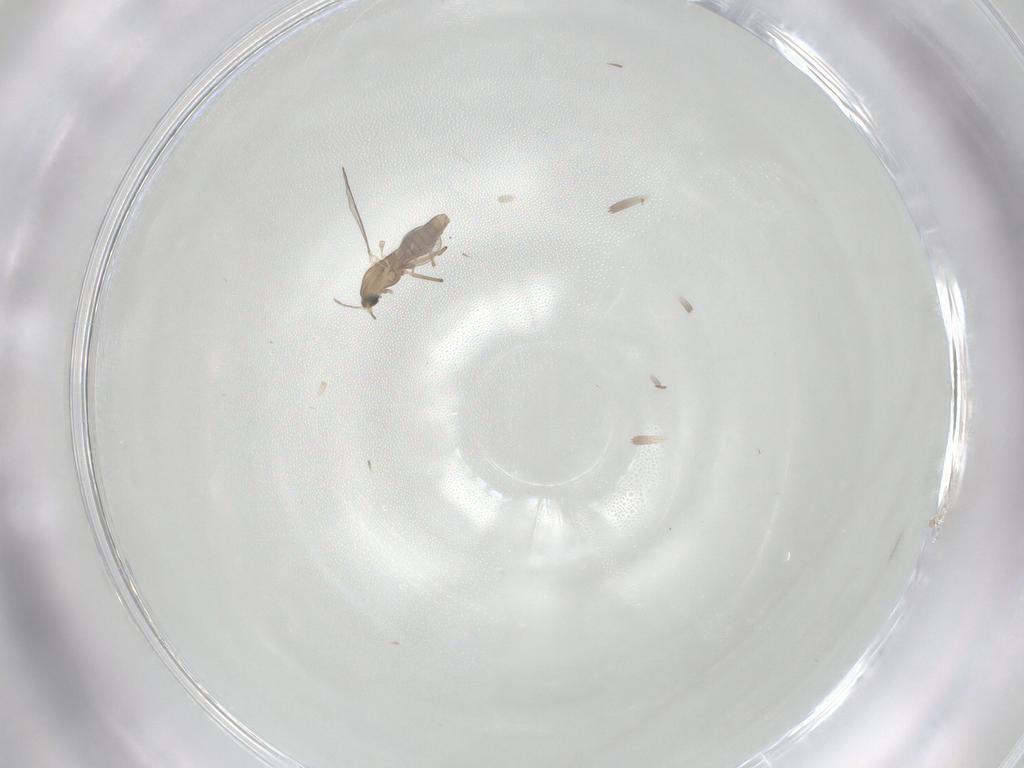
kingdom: Animalia
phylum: Arthropoda
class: Insecta
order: Diptera
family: Chironomidae
